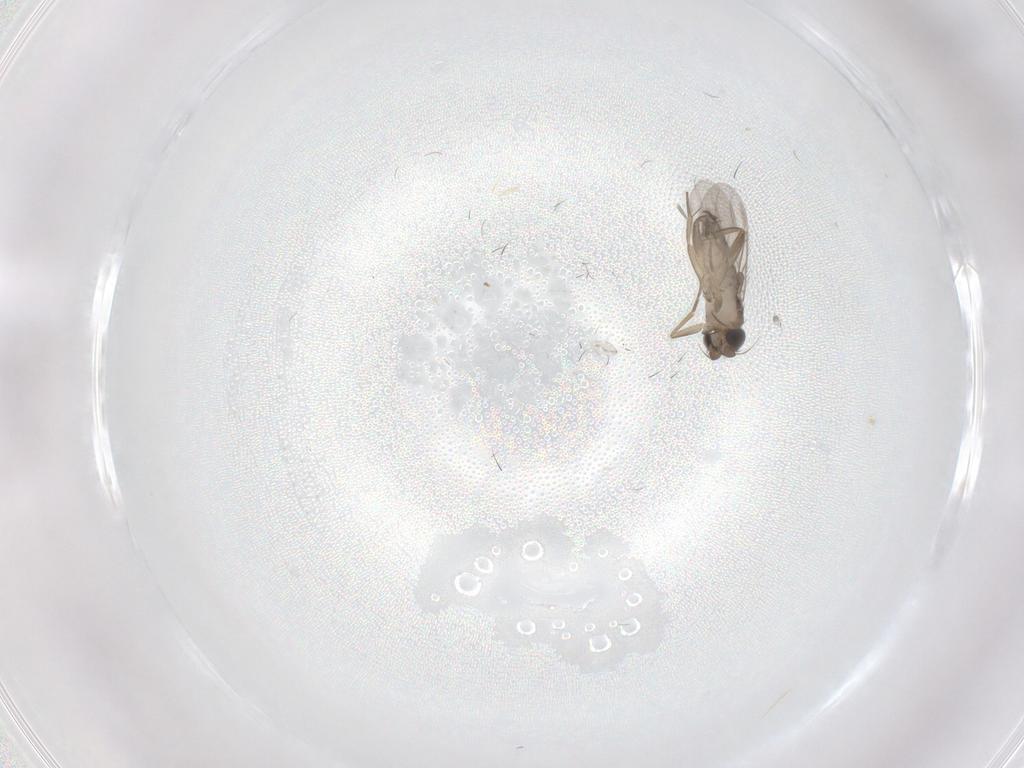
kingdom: Animalia
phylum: Arthropoda
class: Insecta
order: Diptera
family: Phoridae
